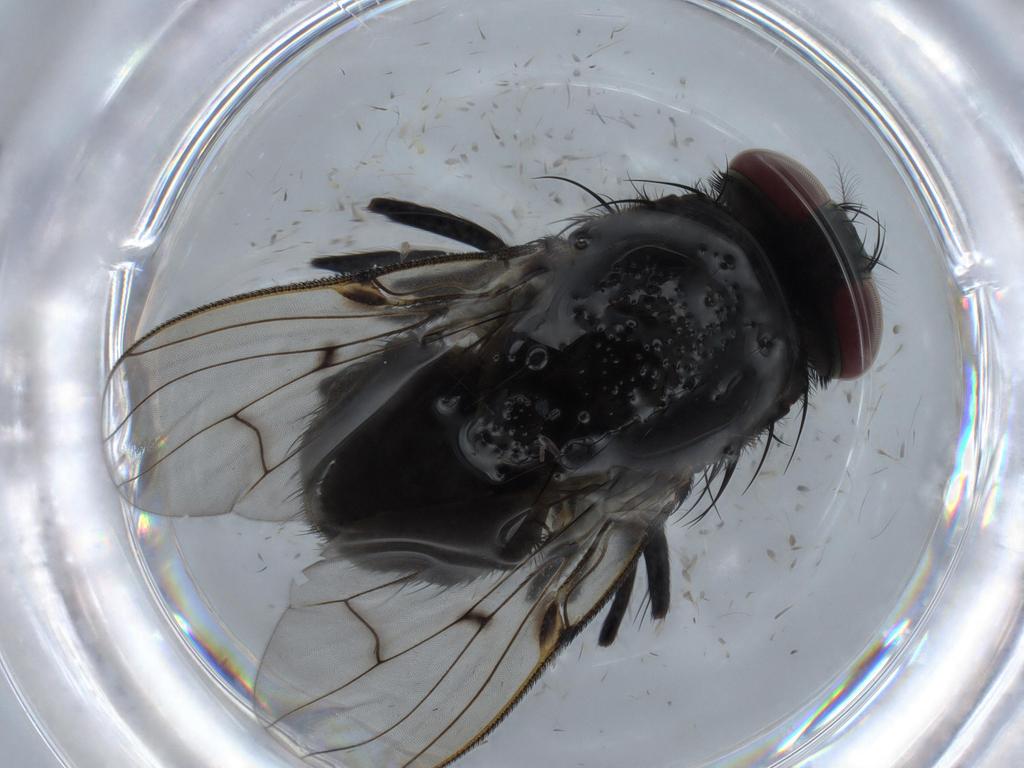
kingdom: Animalia
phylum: Arthropoda
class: Insecta
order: Diptera
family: Muscidae
